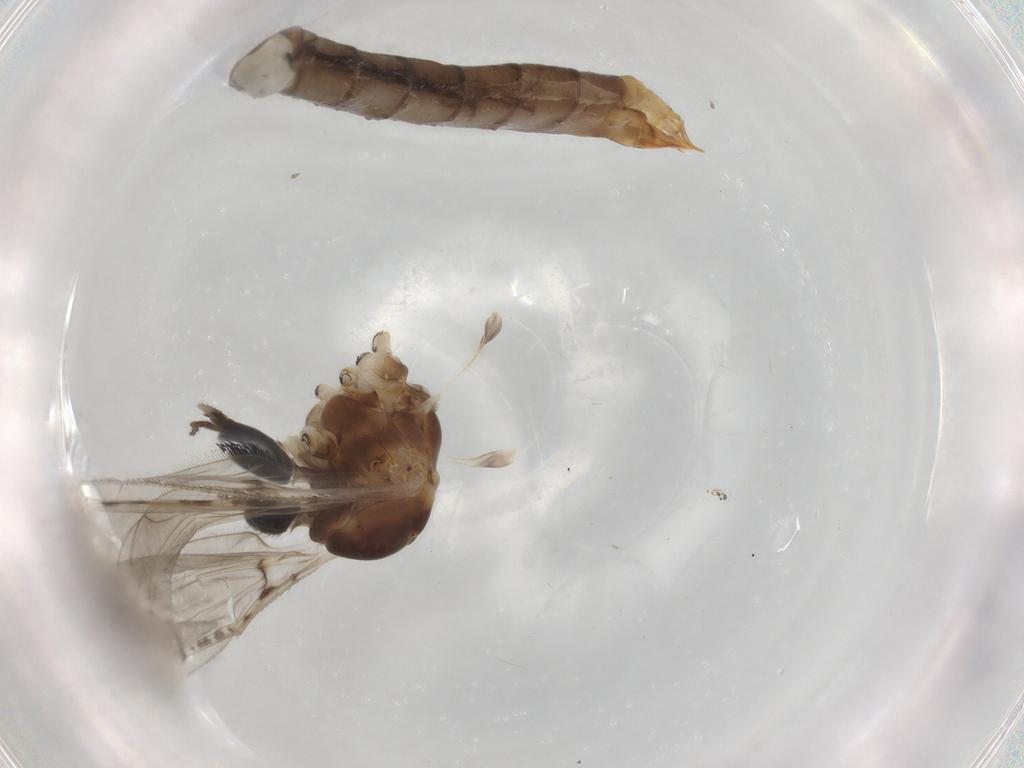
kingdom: Animalia
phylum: Arthropoda
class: Insecta
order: Diptera
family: Limoniidae
